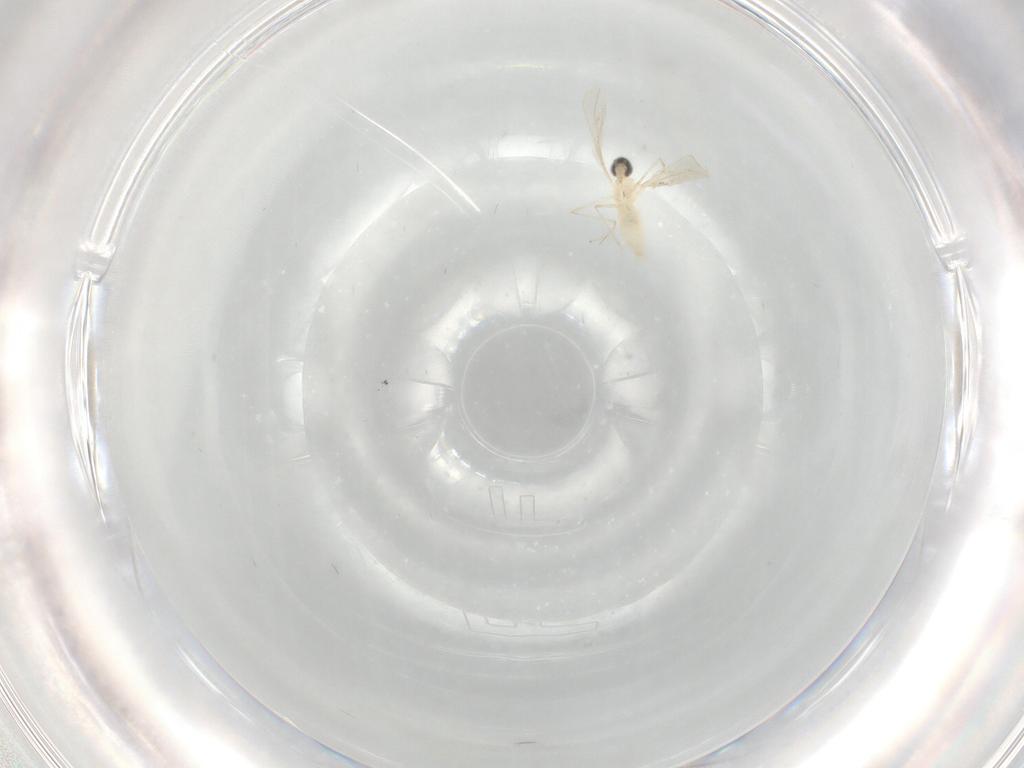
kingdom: Animalia
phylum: Arthropoda
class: Insecta
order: Diptera
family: Cecidomyiidae
